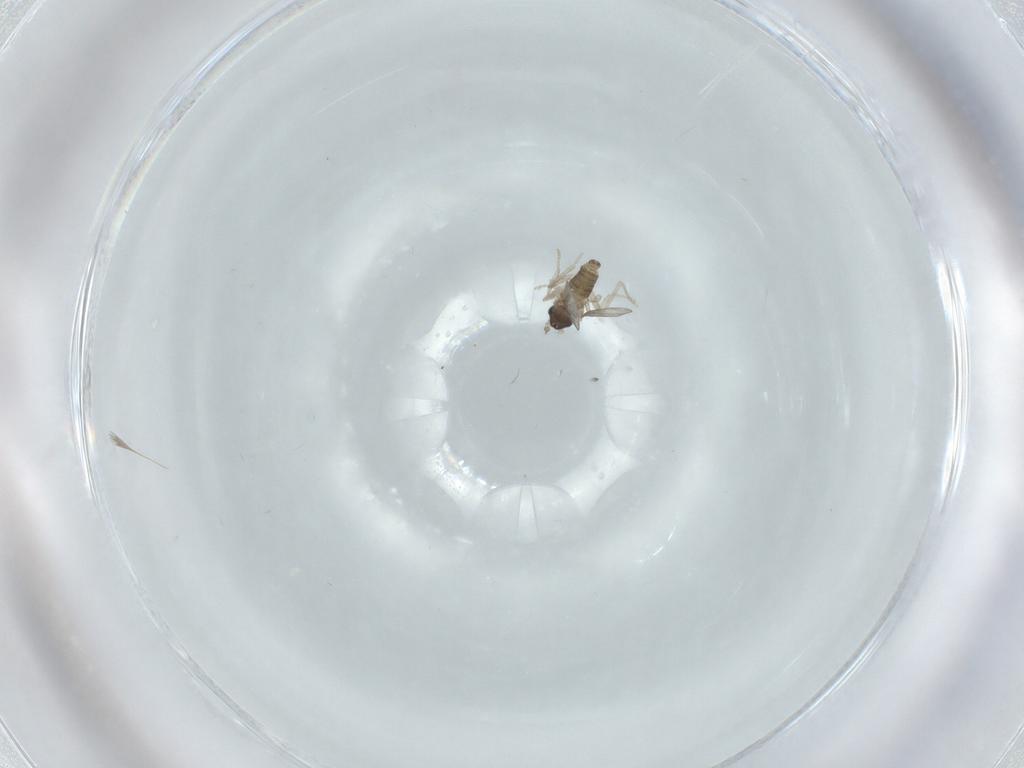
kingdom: Animalia
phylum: Arthropoda
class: Insecta
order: Diptera
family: Cecidomyiidae
